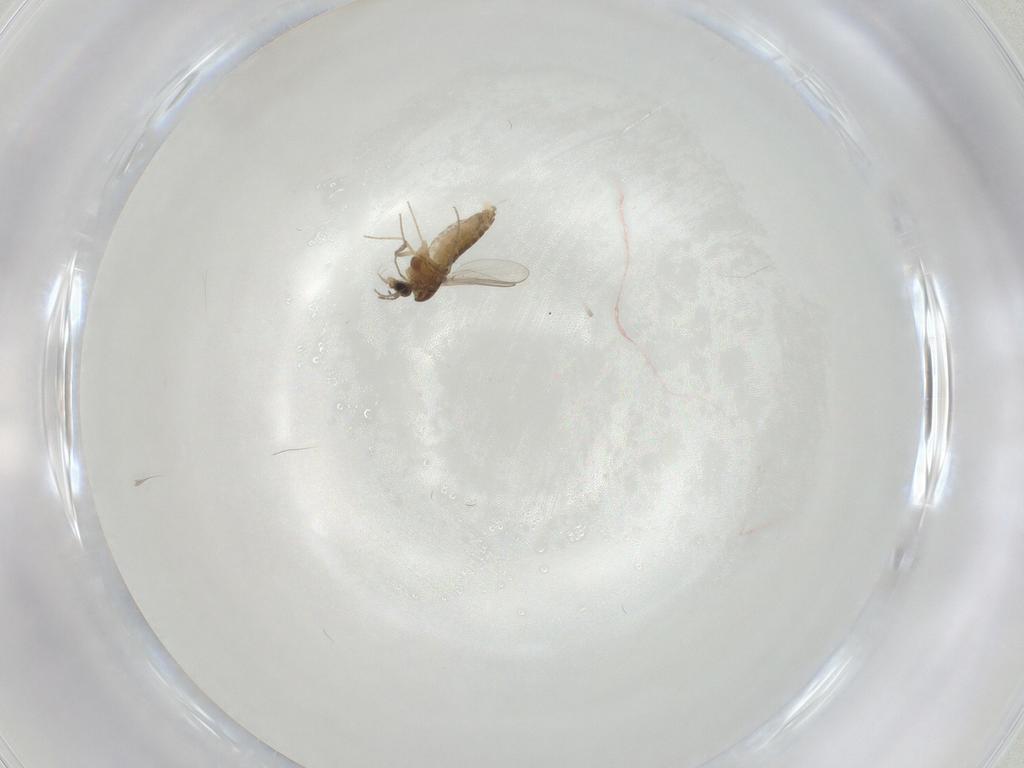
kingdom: Animalia
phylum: Arthropoda
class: Insecta
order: Diptera
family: Chironomidae
